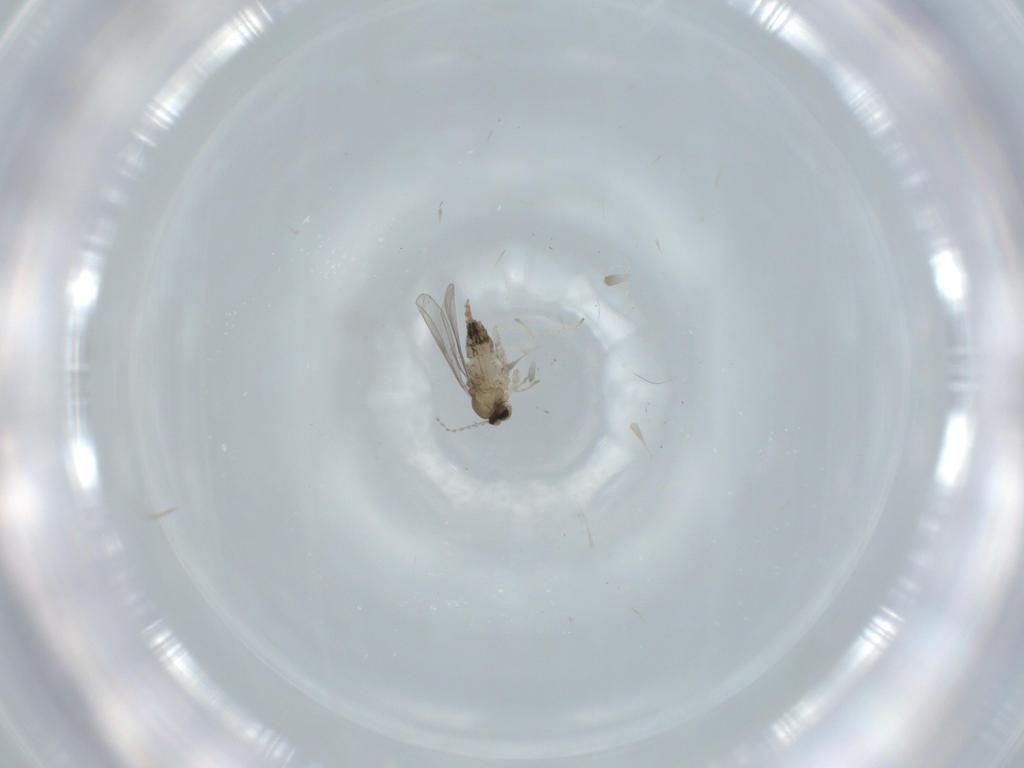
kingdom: Animalia
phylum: Arthropoda
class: Insecta
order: Diptera
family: Cecidomyiidae
